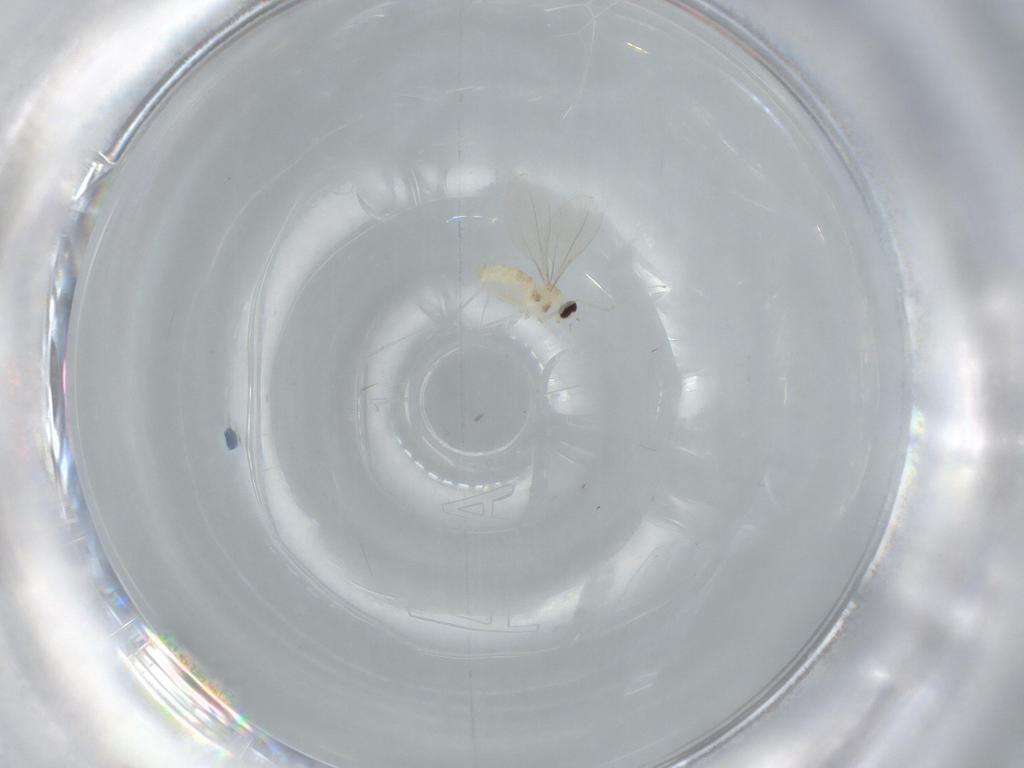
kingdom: Animalia
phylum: Arthropoda
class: Insecta
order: Diptera
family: Cecidomyiidae
